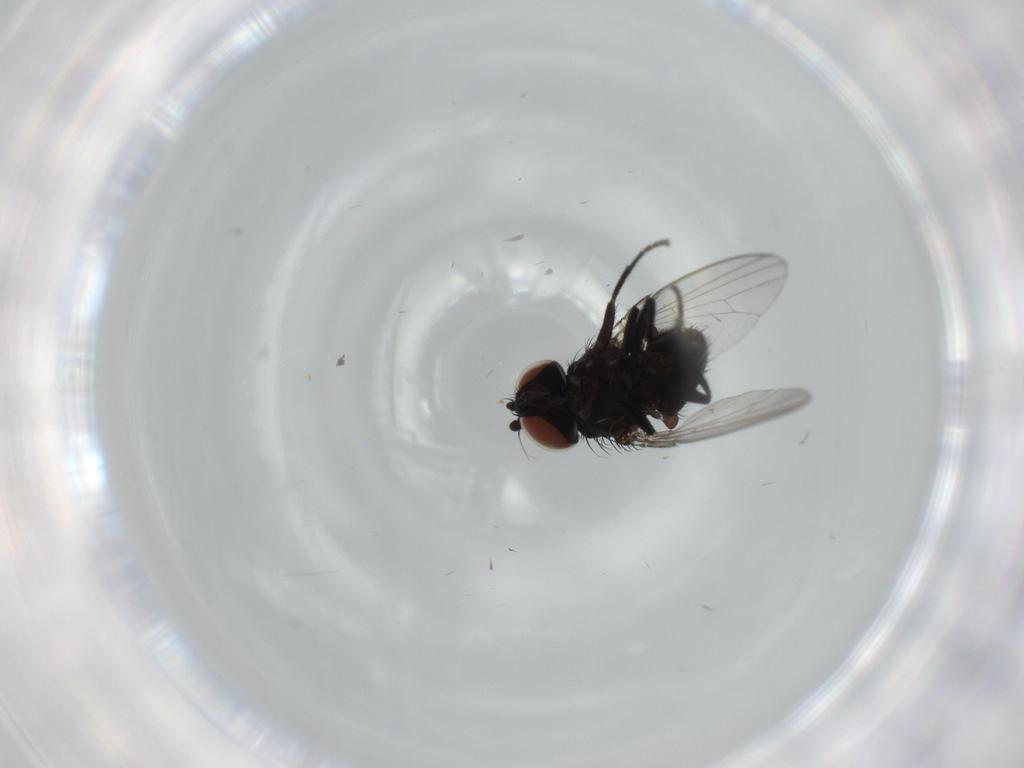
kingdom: Animalia
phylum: Arthropoda
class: Insecta
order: Diptera
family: Milichiidae
